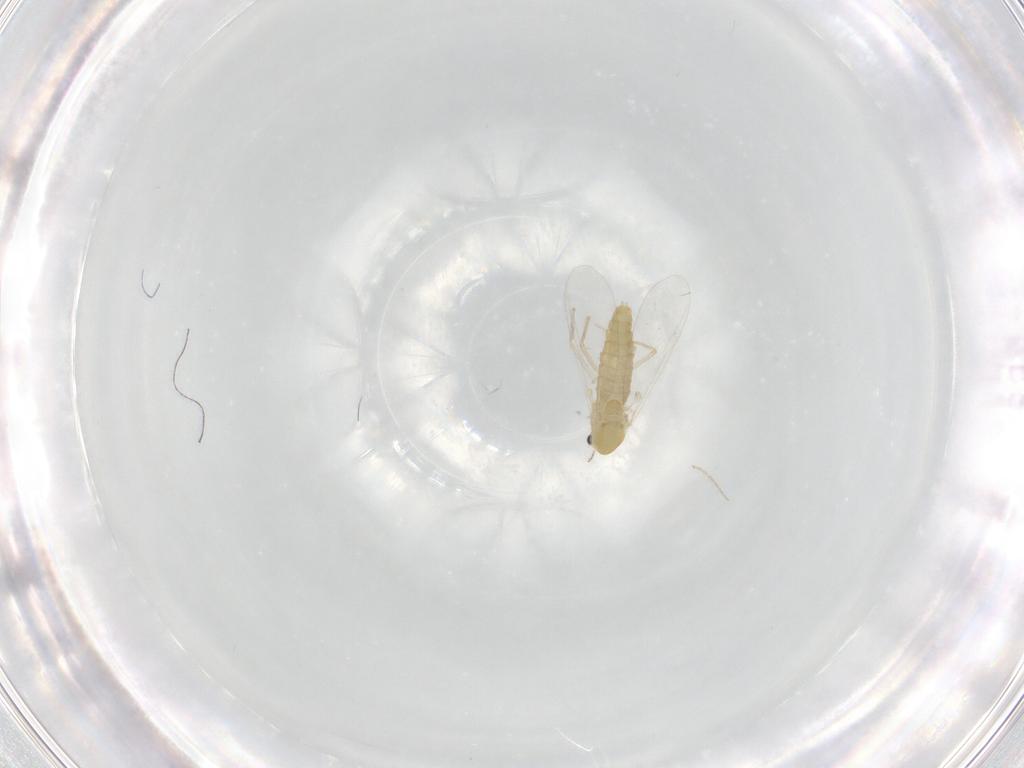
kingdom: Animalia
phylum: Arthropoda
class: Insecta
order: Diptera
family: Chironomidae
